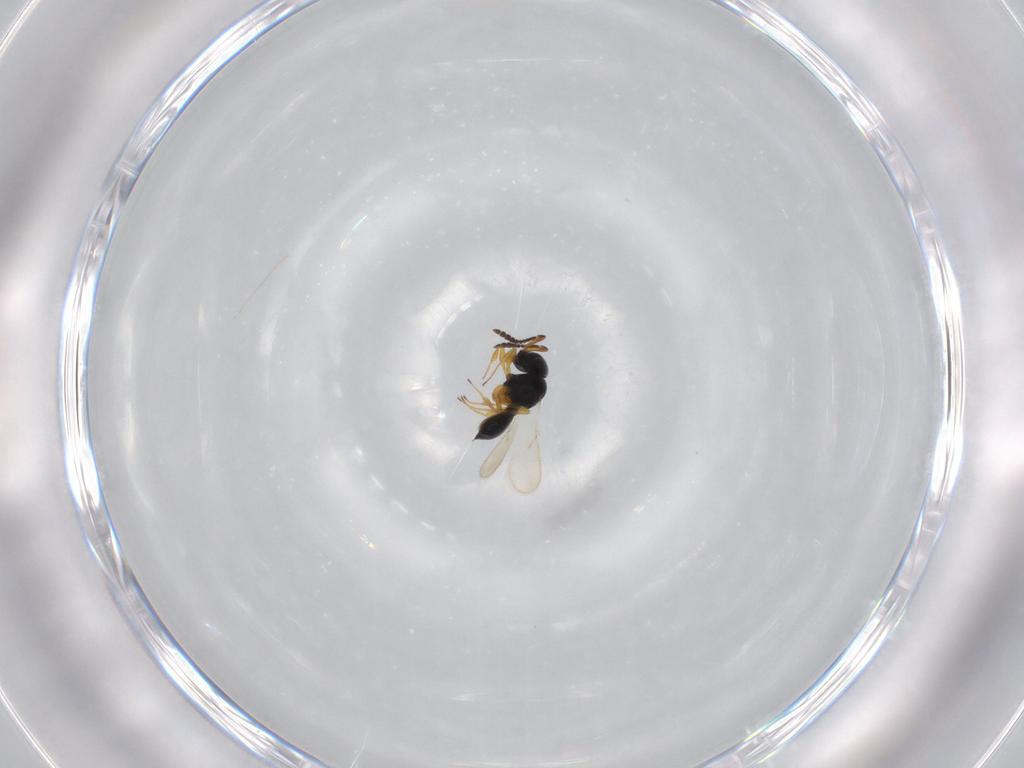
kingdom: Animalia
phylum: Arthropoda
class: Insecta
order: Hymenoptera
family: Scelionidae
